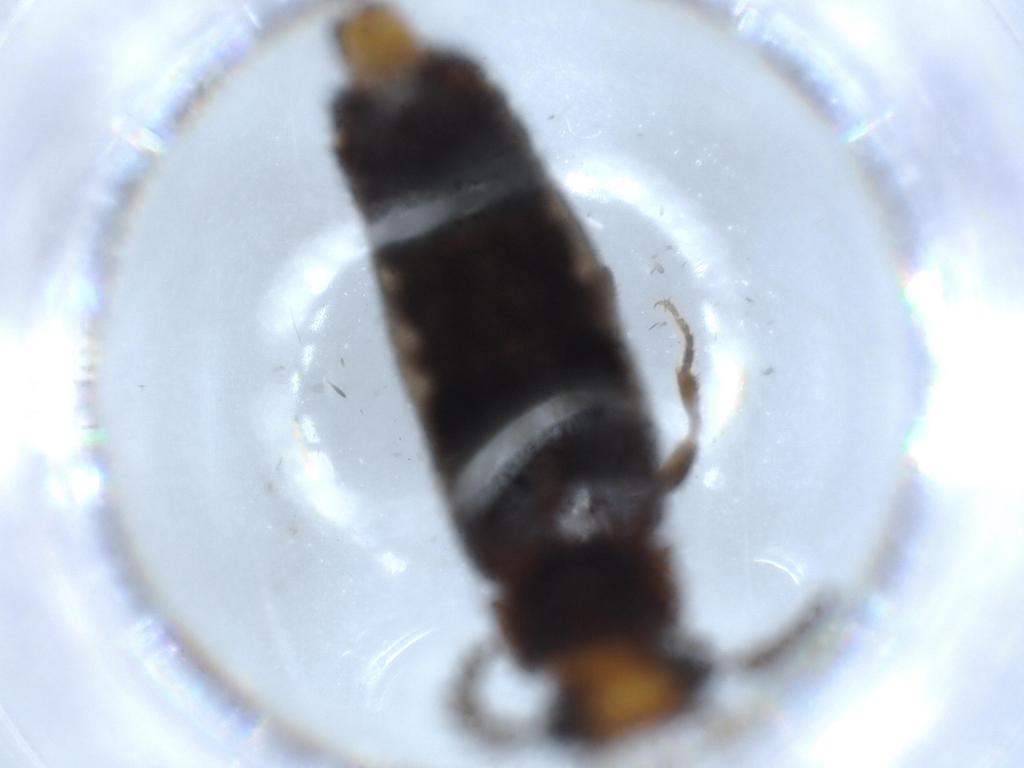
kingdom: Animalia
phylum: Arthropoda
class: Insecta
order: Coleoptera
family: Phengodidae
